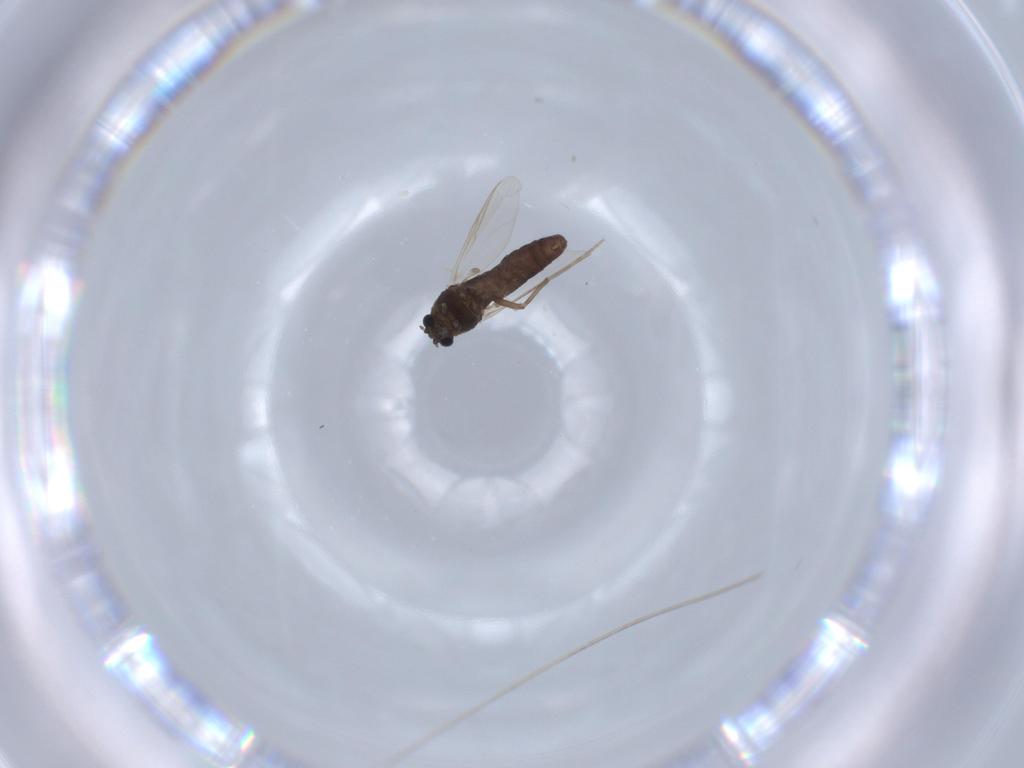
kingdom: Animalia
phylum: Arthropoda
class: Insecta
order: Diptera
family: Chironomidae
